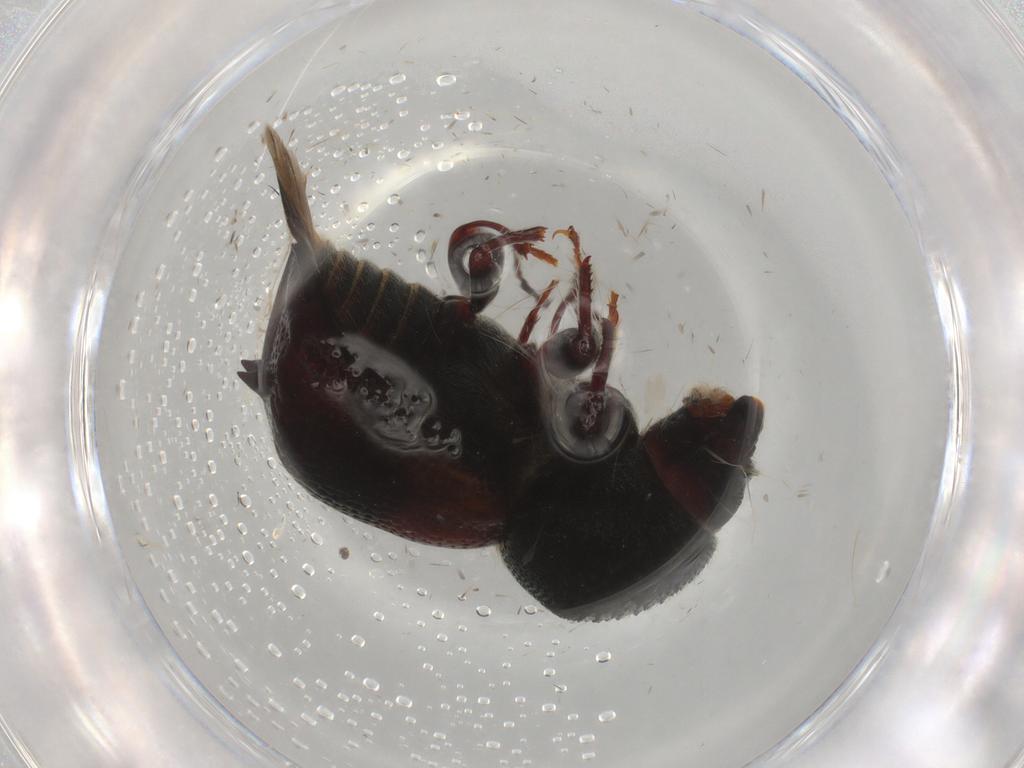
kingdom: Animalia
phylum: Arthropoda
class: Insecta
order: Coleoptera
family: Bostrichidae
